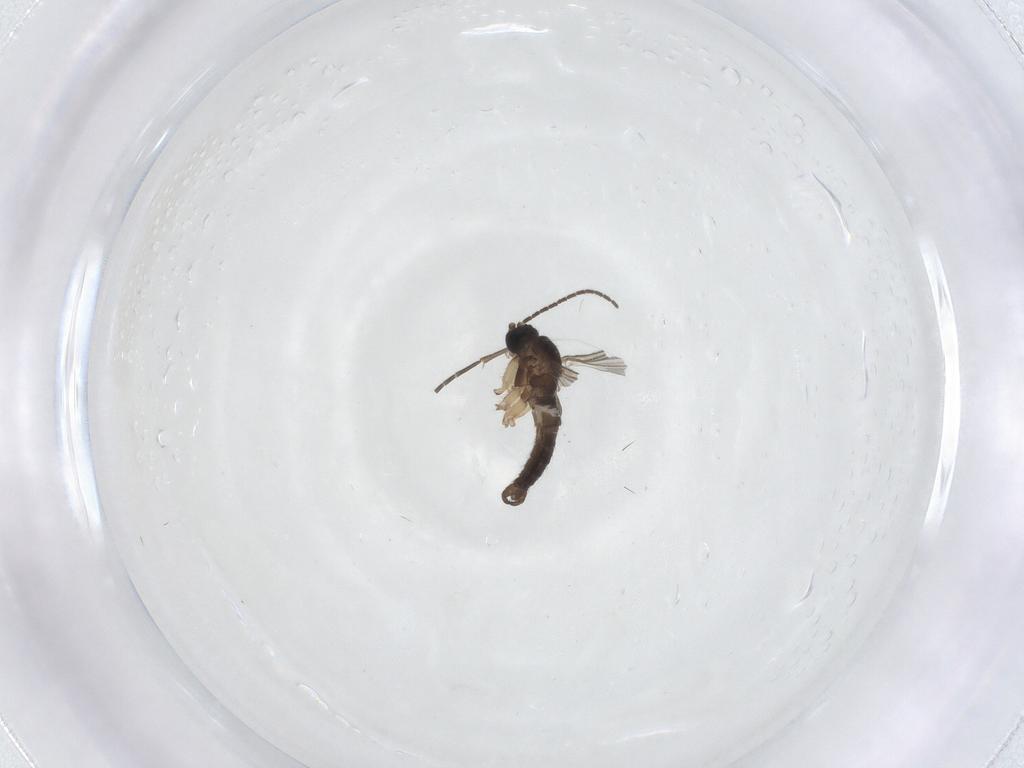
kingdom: Animalia
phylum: Arthropoda
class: Insecta
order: Diptera
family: Sciaridae
